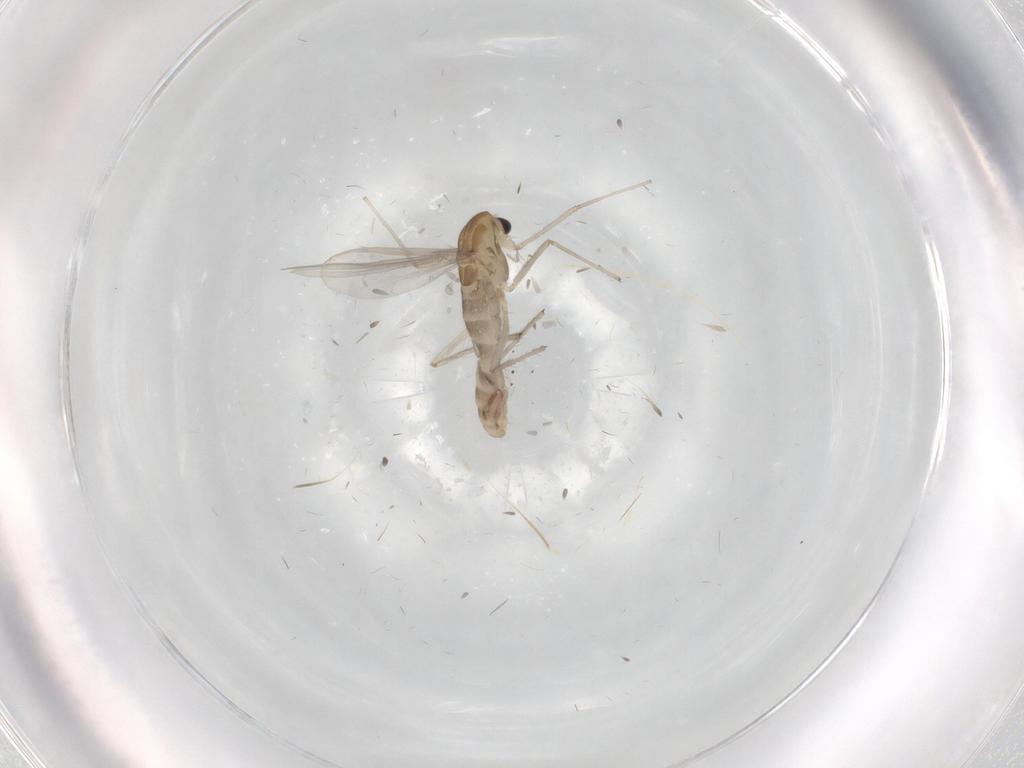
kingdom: Animalia
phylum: Arthropoda
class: Insecta
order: Diptera
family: Chironomidae
